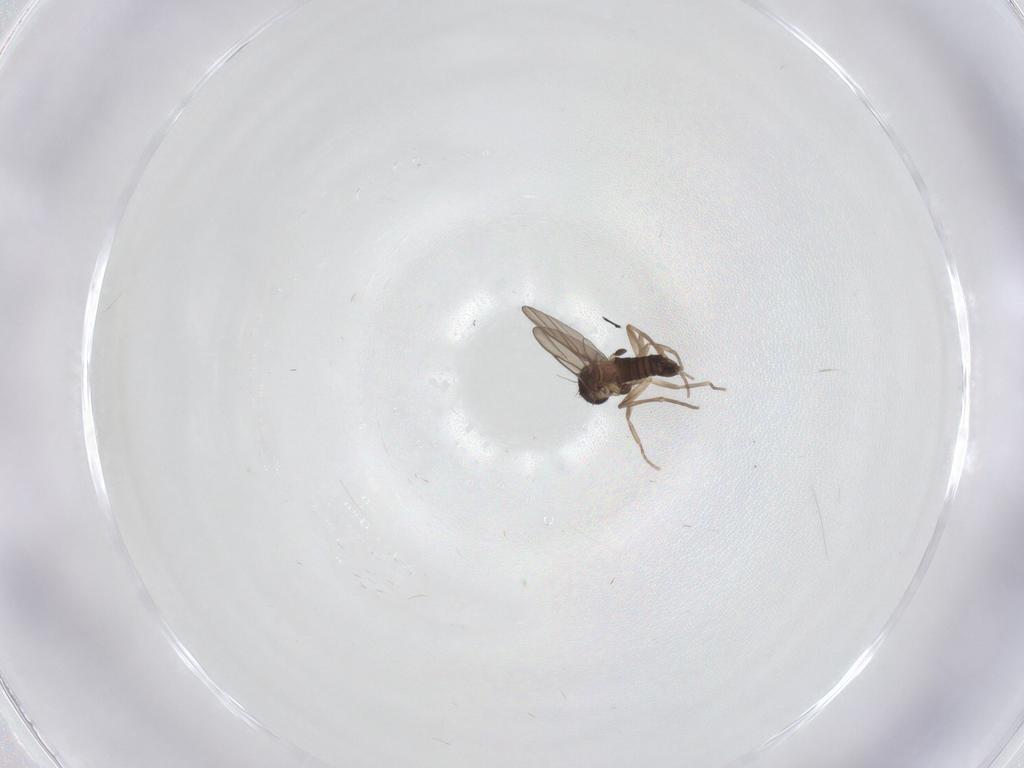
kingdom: Animalia
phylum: Arthropoda
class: Insecta
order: Diptera
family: Phoridae
